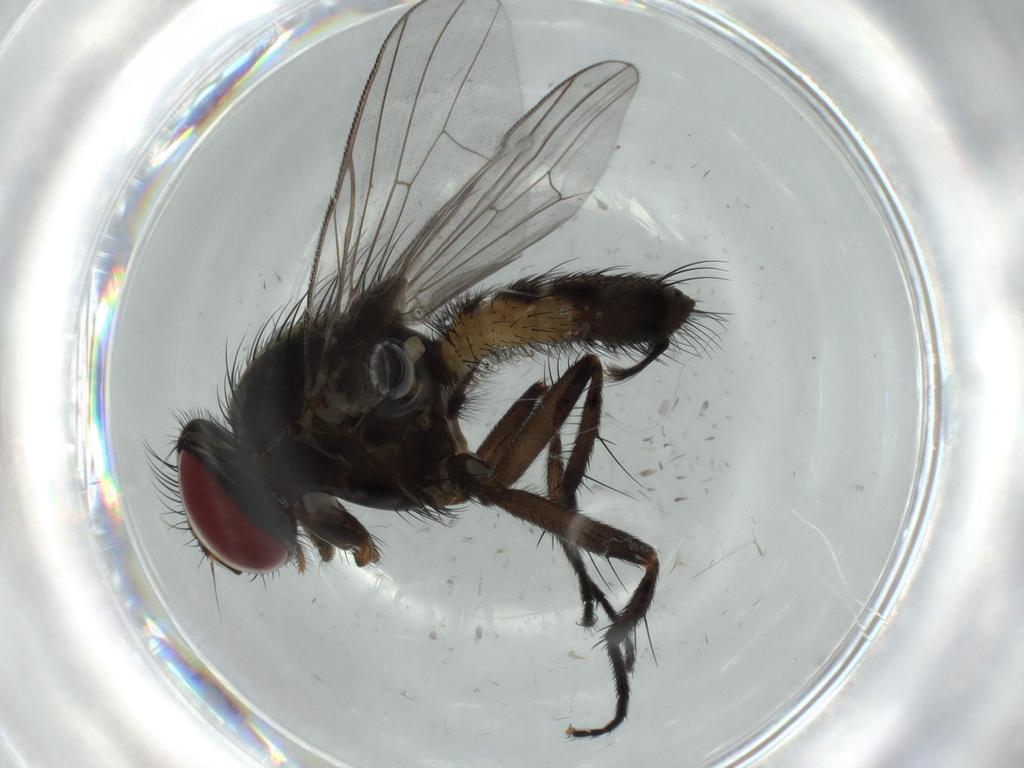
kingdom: Animalia
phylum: Arthropoda
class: Insecta
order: Diptera
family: Fannia
